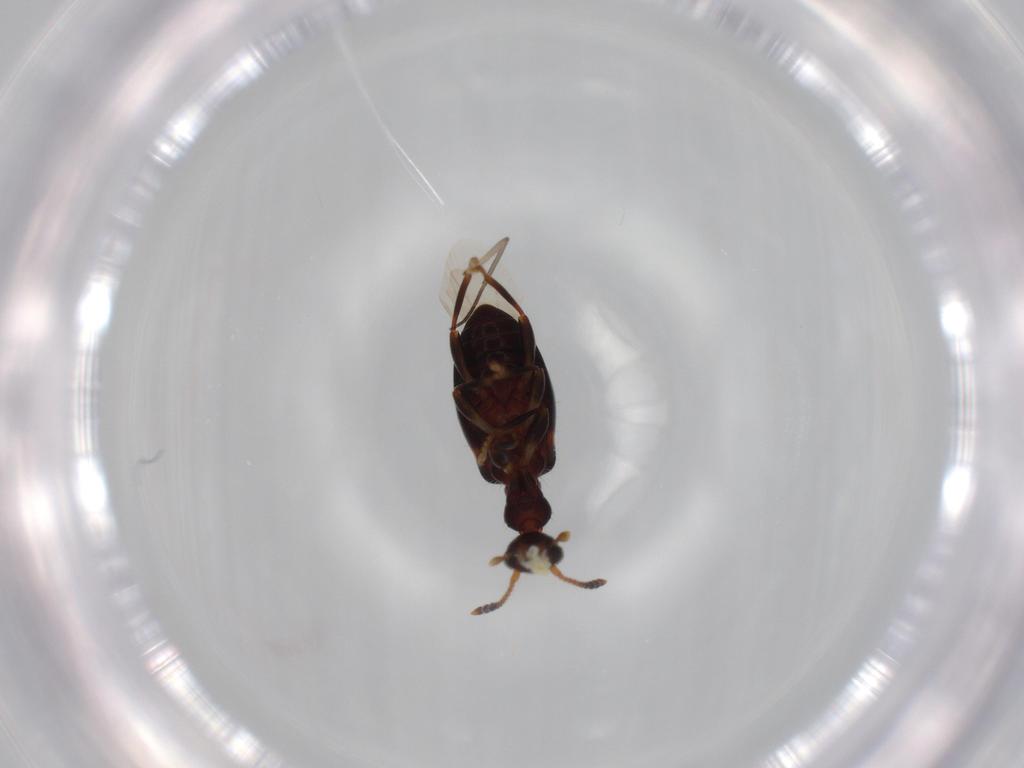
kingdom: Animalia
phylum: Arthropoda
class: Insecta
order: Coleoptera
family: Anthicidae
